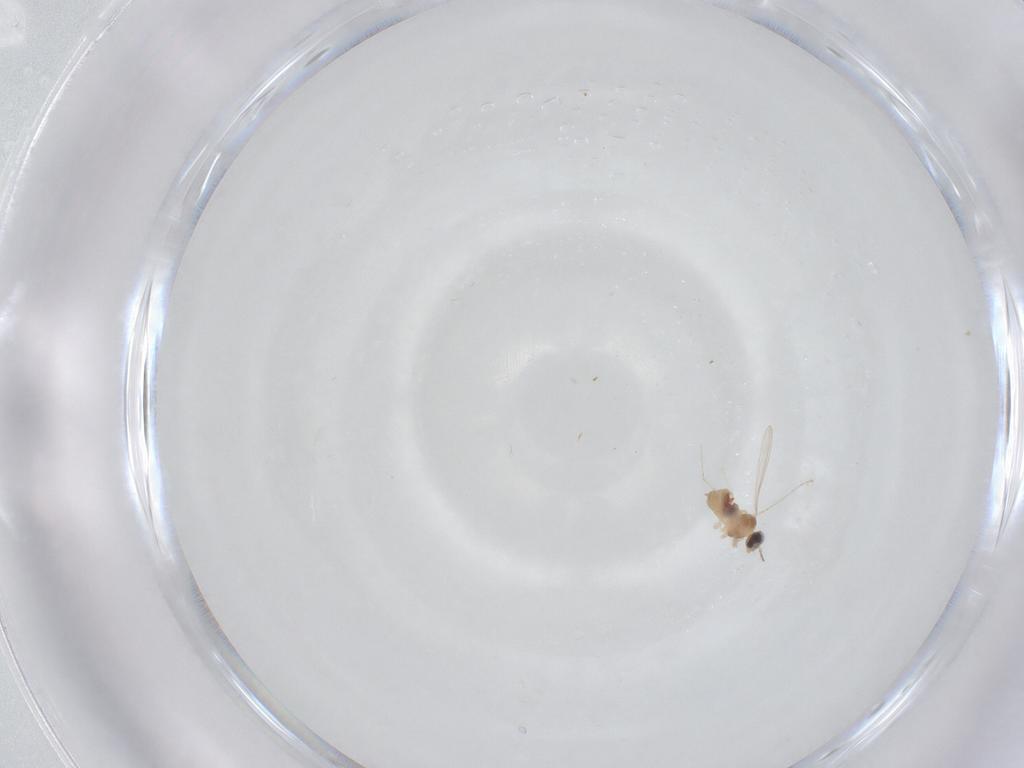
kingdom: Animalia
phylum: Arthropoda
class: Insecta
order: Diptera
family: Cecidomyiidae
